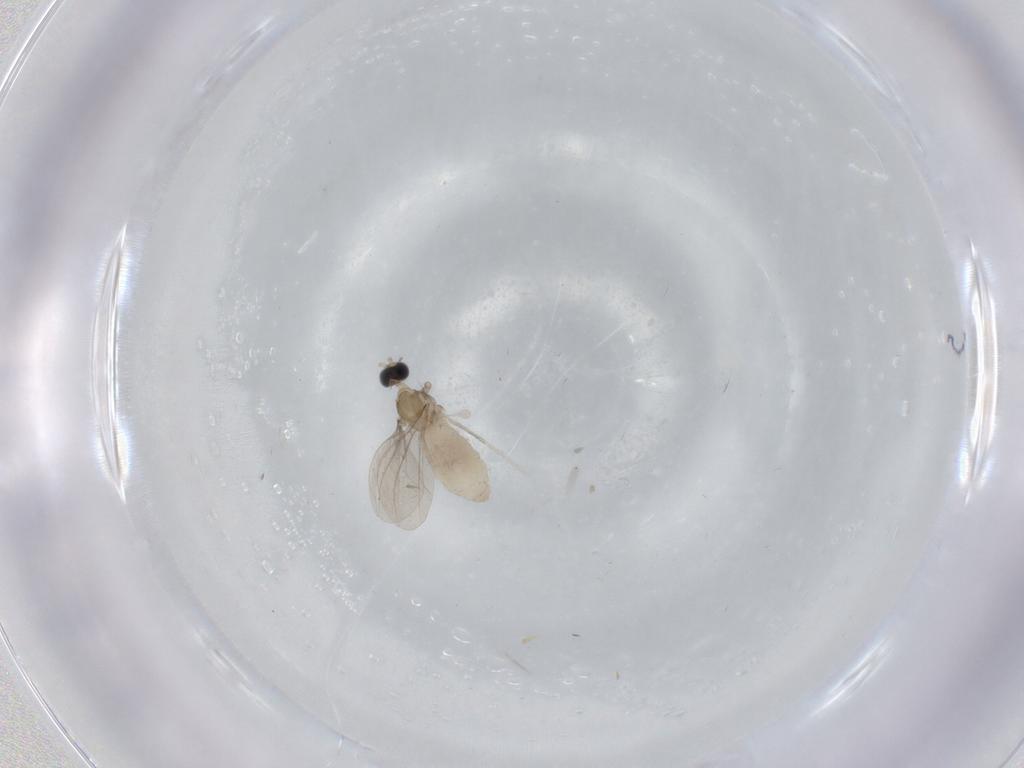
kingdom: Animalia
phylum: Arthropoda
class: Insecta
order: Diptera
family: Cecidomyiidae
